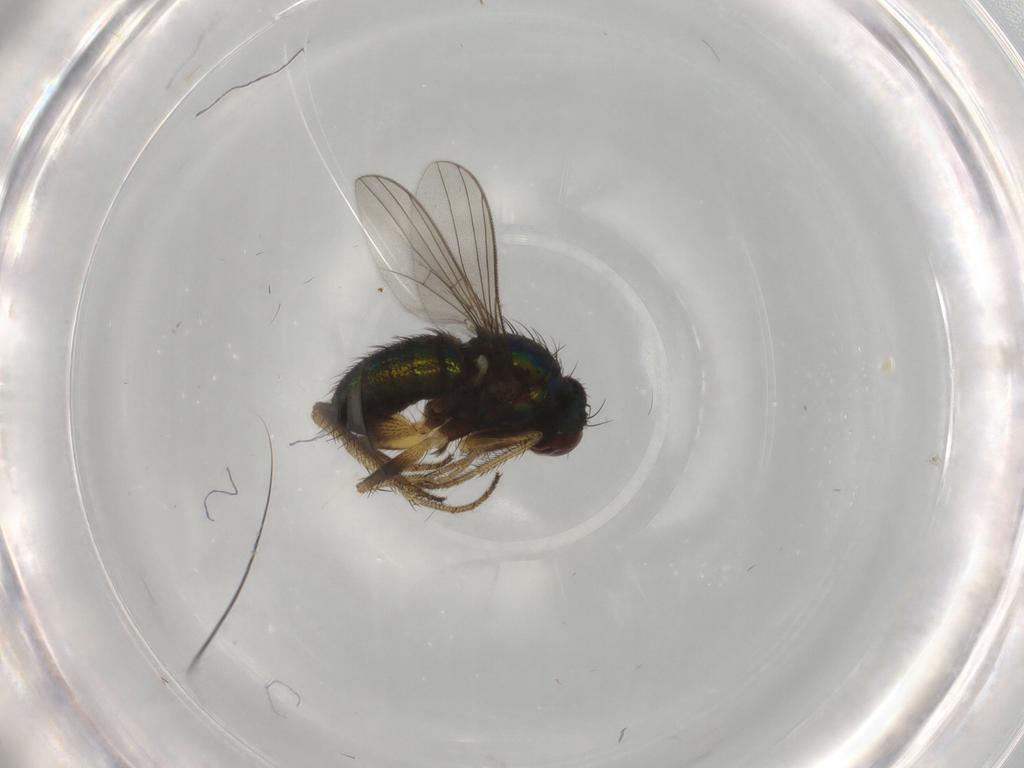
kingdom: Animalia
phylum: Arthropoda
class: Insecta
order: Diptera
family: Dolichopodidae
